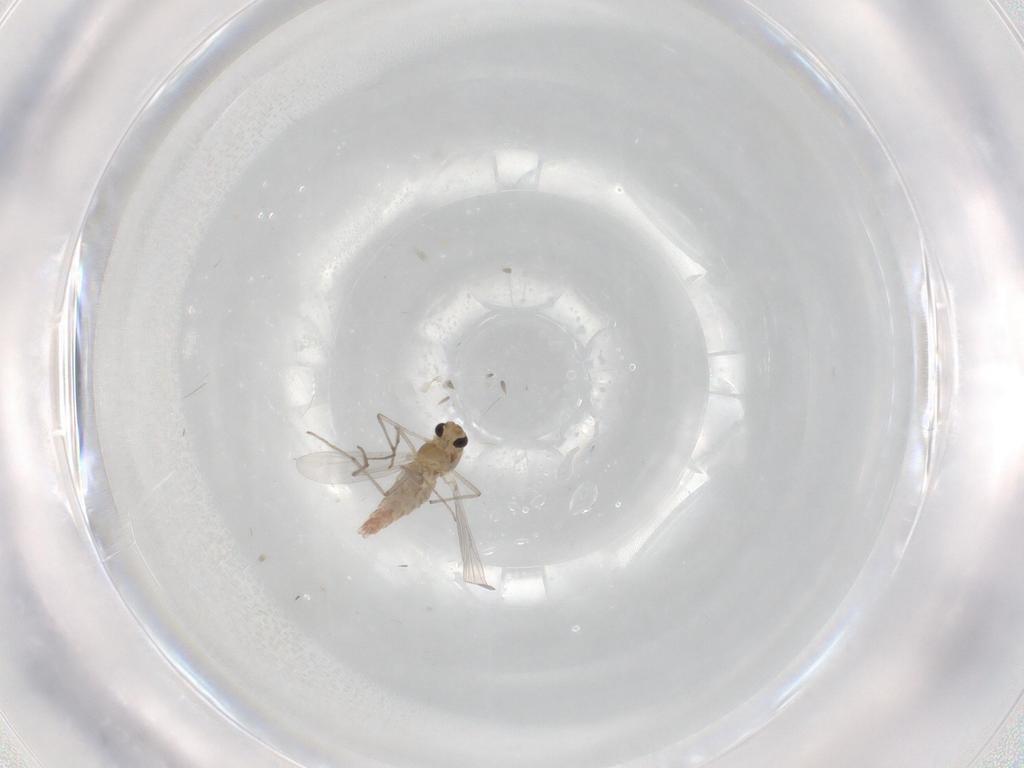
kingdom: Animalia
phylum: Arthropoda
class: Insecta
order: Diptera
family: Chironomidae
